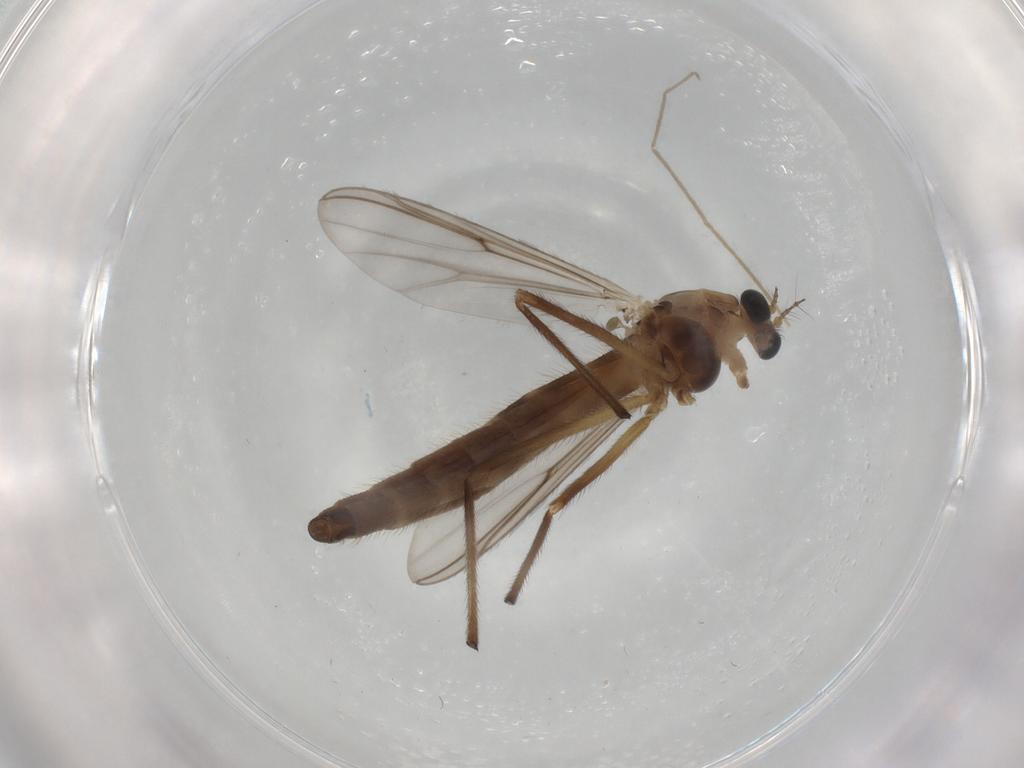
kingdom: Animalia
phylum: Arthropoda
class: Insecta
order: Diptera
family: Chironomidae
